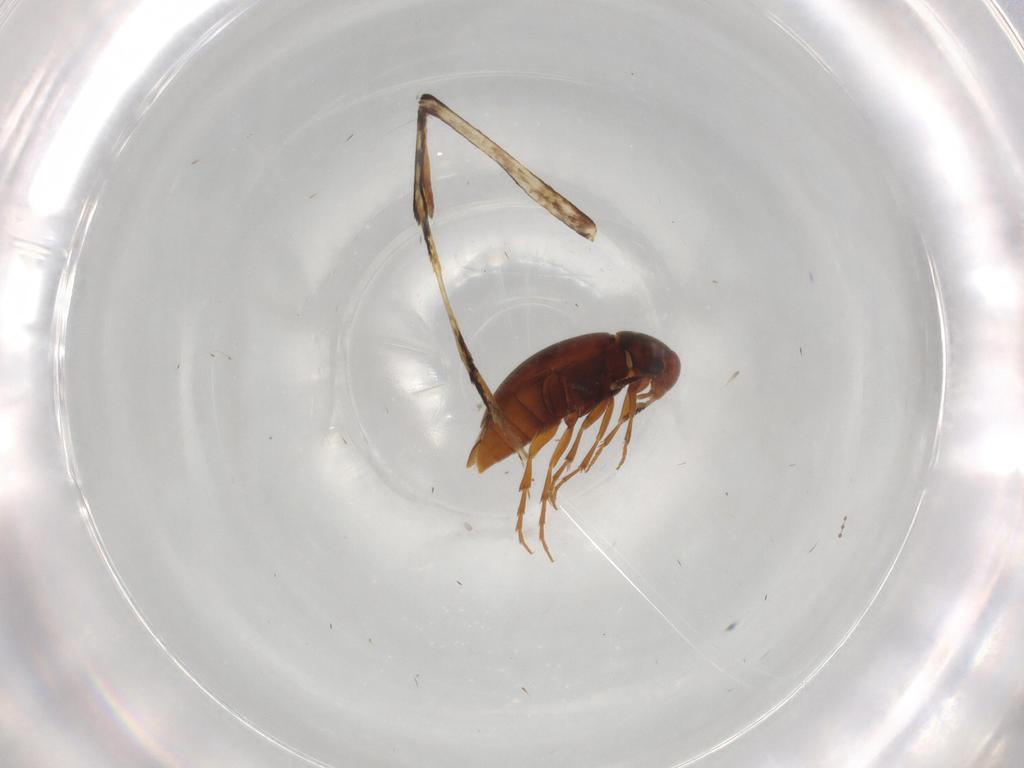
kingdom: Animalia
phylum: Arthropoda
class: Insecta
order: Coleoptera
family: Scraptiidae
